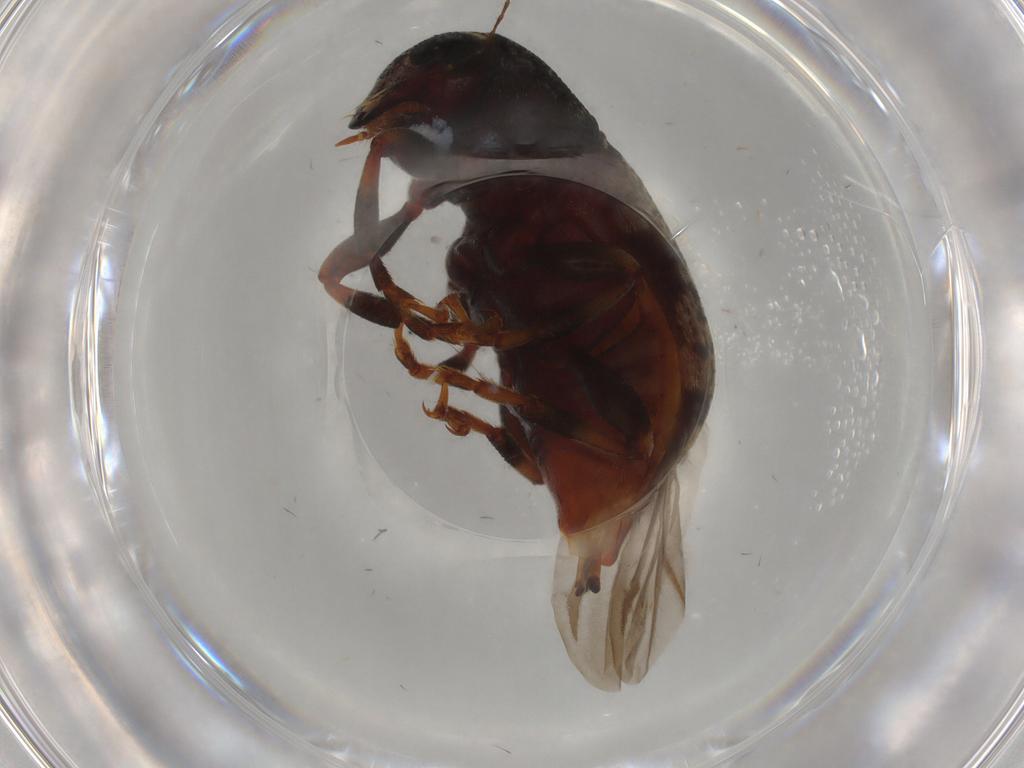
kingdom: Animalia
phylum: Arthropoda
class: Insecta
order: Coleoptera
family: Anthribidae
